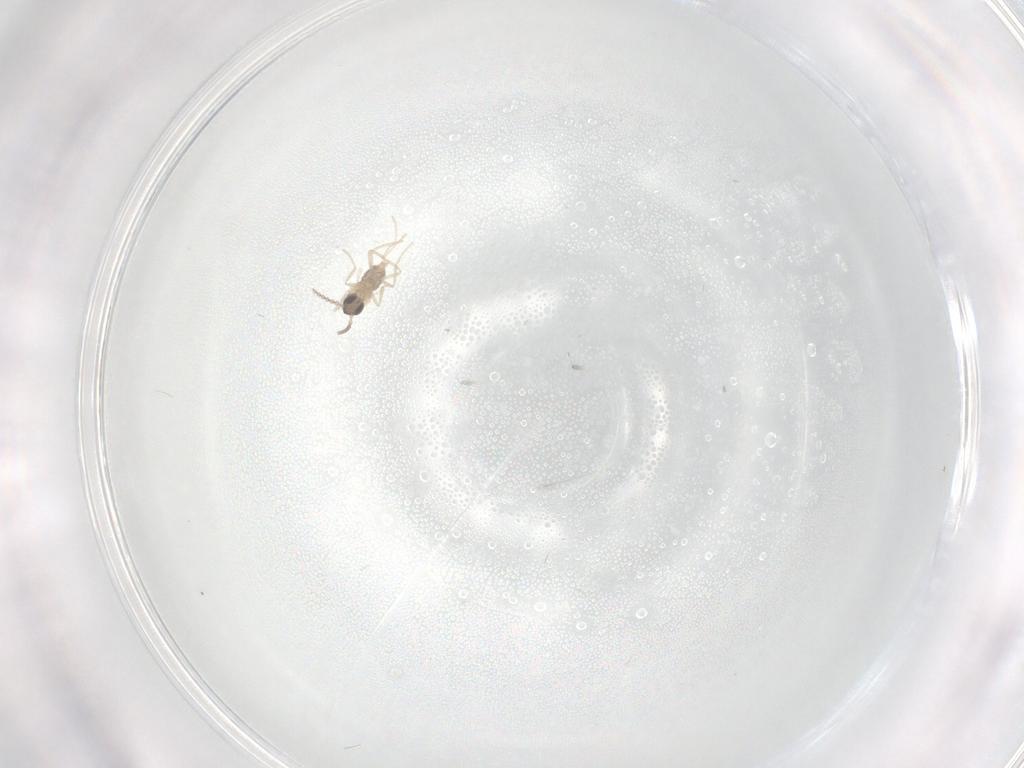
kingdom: Animalia
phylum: Arthropoda
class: Insecta
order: Diptera
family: Cecidomyiidae
